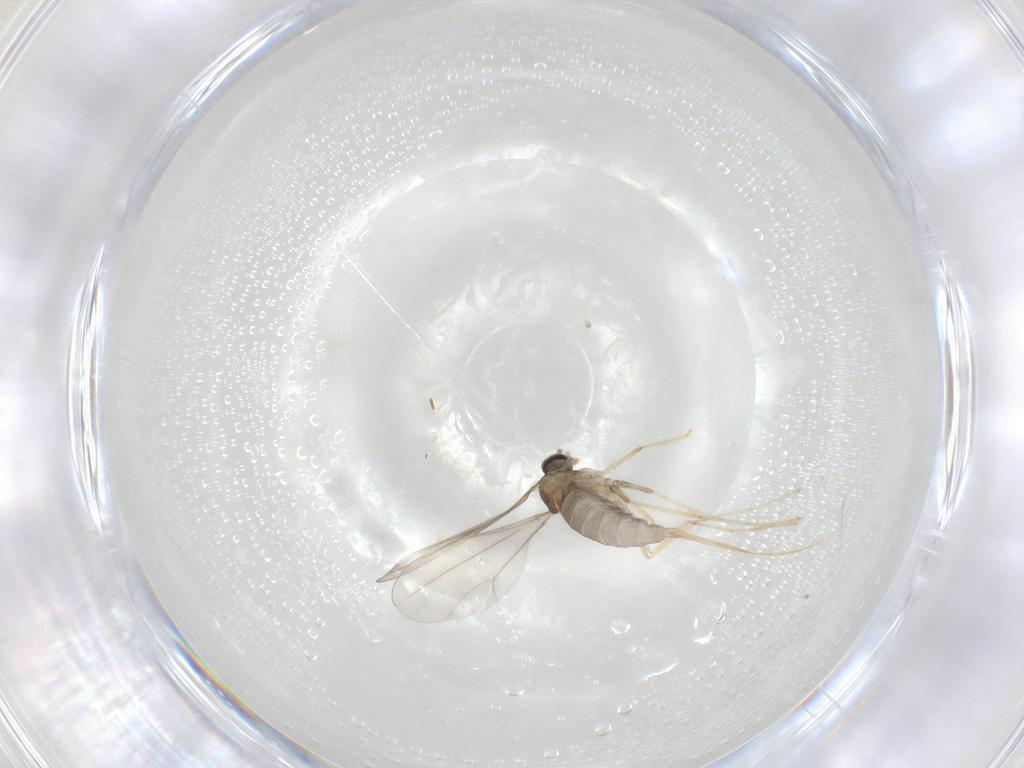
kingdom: Animalia
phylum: Arthropoda
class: Insecta
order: Diptera
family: Cecidomyiidae
